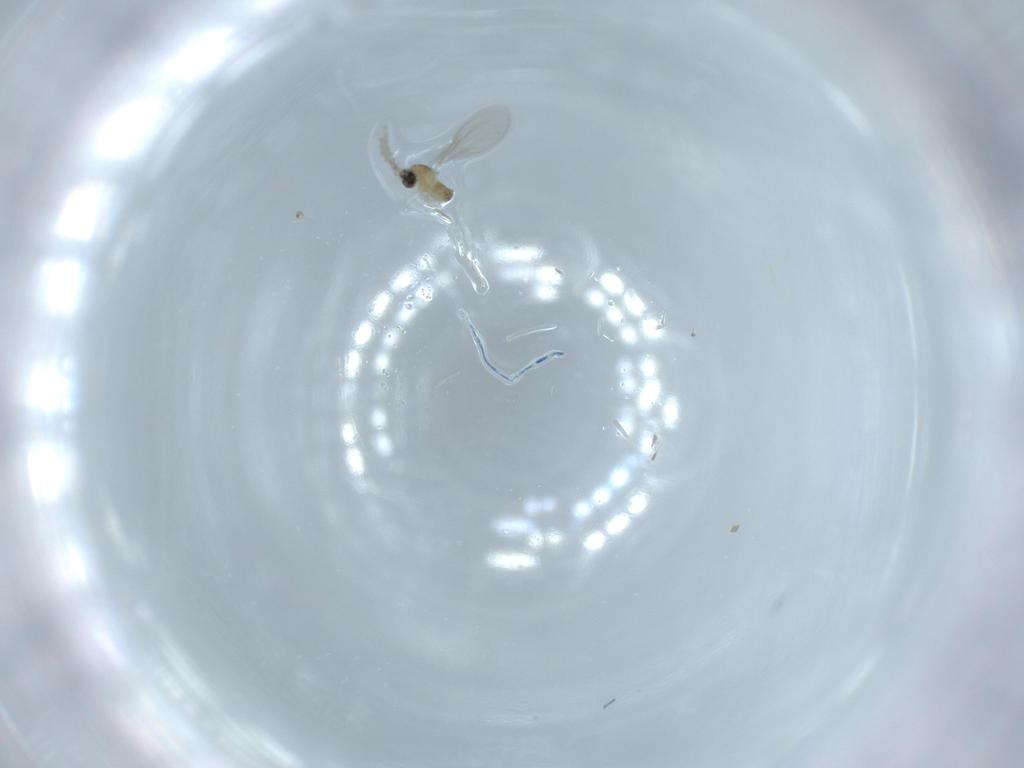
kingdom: Animalia
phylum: Arthropoda
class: Insecta
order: Diptera
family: Cecidomyiidae
